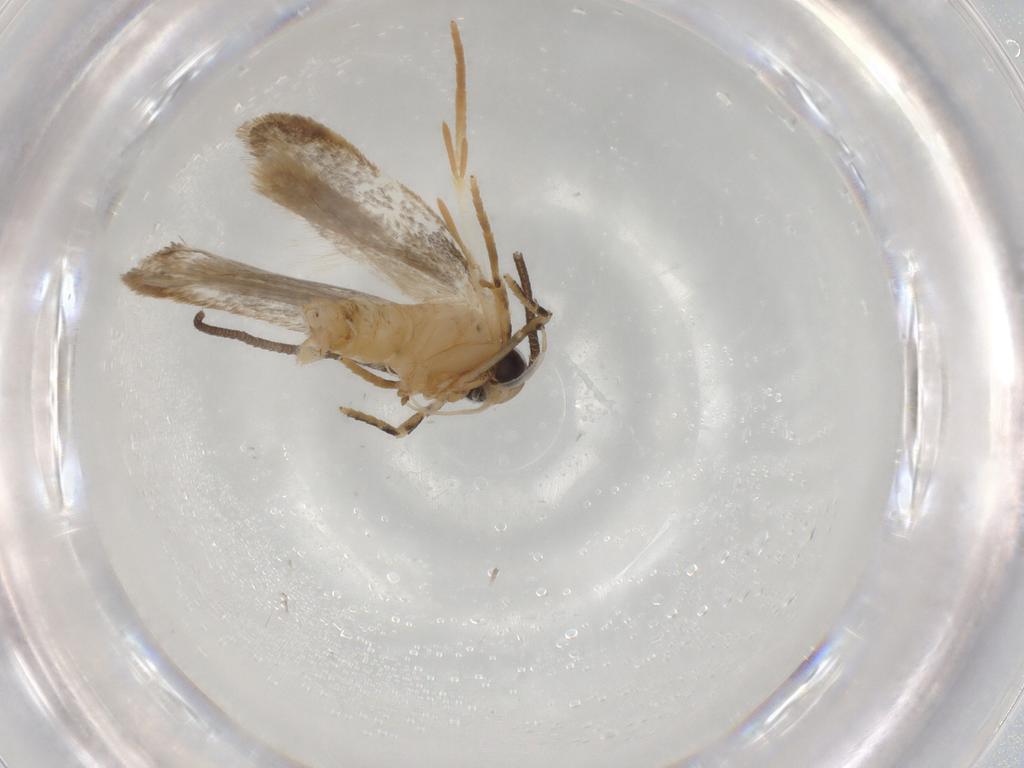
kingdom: Animalia
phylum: Arthropoda
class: Insecta
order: Lepidoptera
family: Autostichidae
